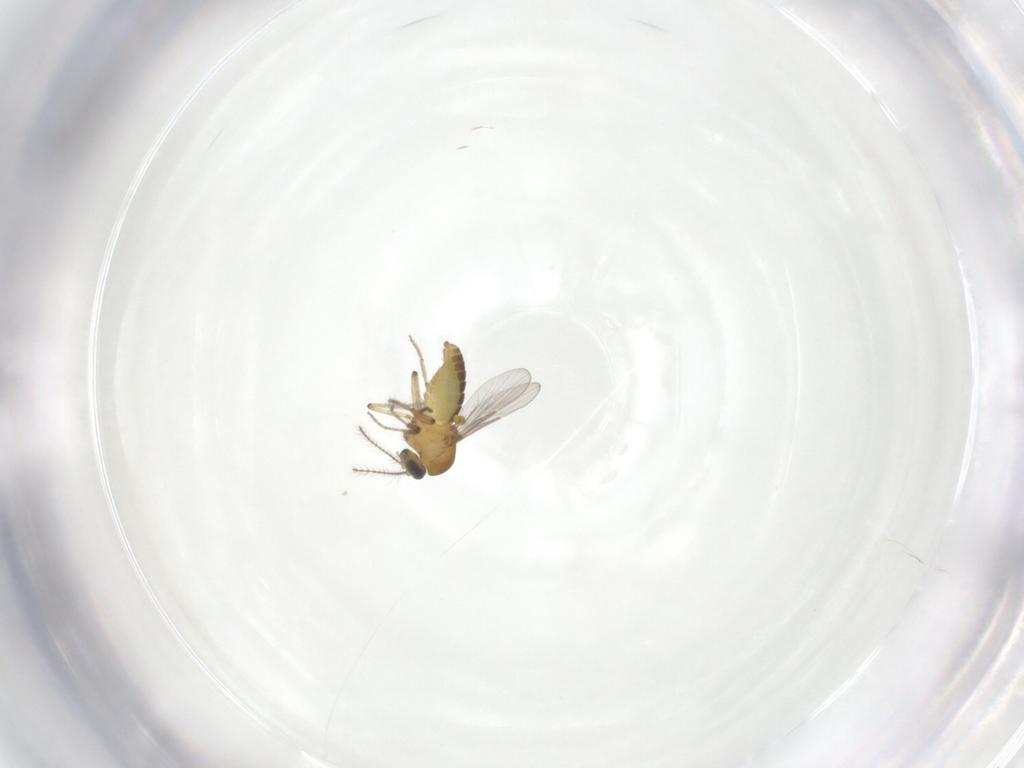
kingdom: Animalia
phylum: Arthropoda
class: Insecta
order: Diptera
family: Ceratopogonidae
